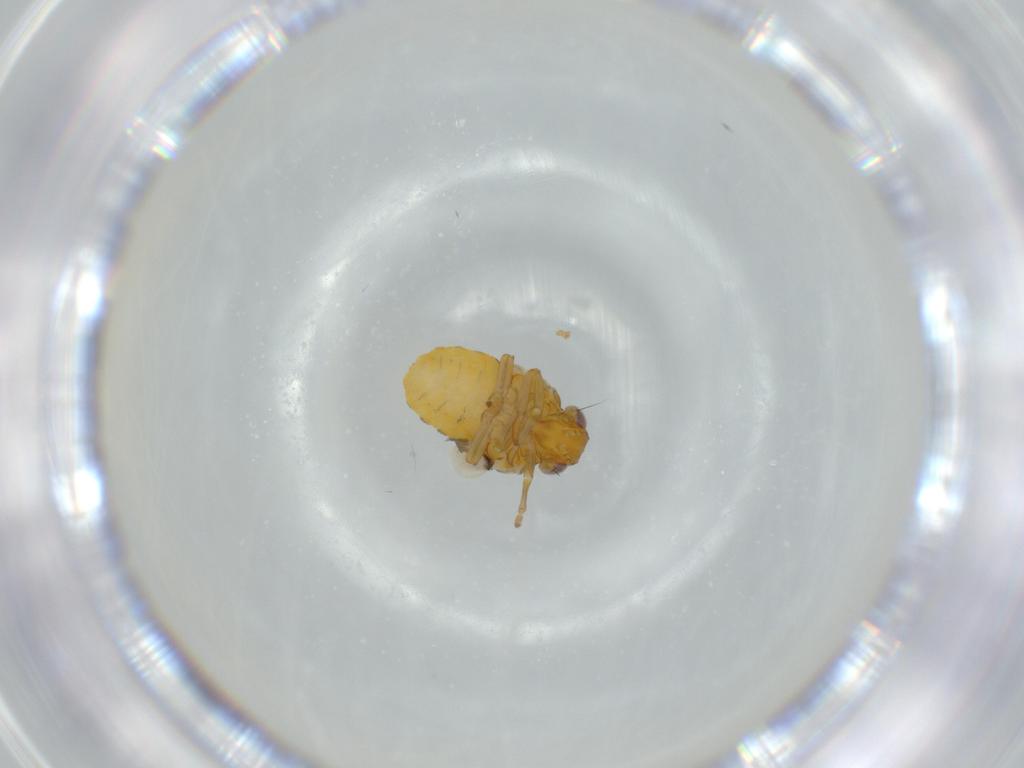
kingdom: Animalia
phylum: Arthropoda
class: Insecta
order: Hemiptera
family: Issidae
